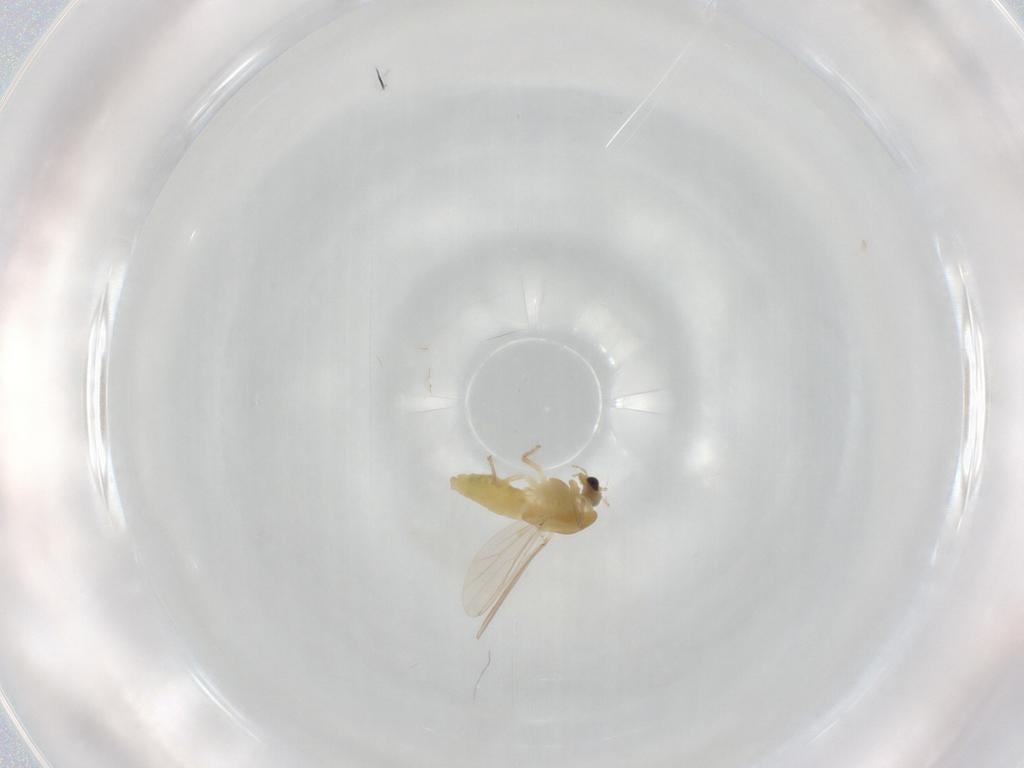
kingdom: Animalia
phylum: Arthropoda
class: Insecta
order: Diptera
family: Chironomidae
